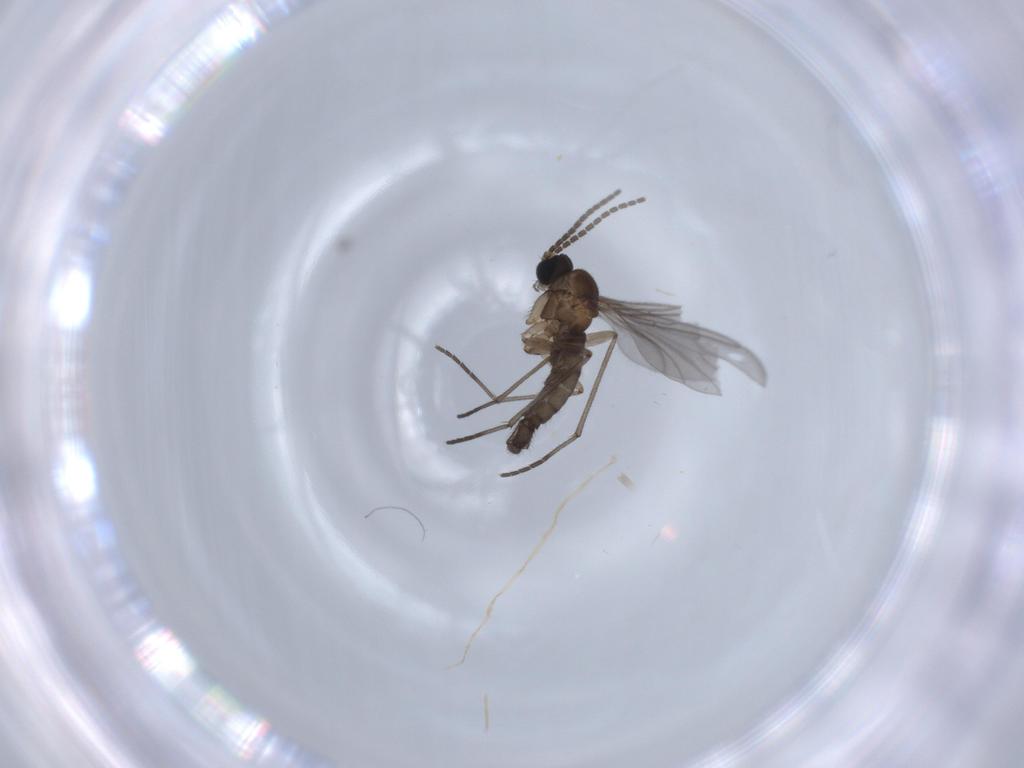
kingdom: Animalia
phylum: Arthropoda
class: Insecta
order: Diptera
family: Sciaridae
